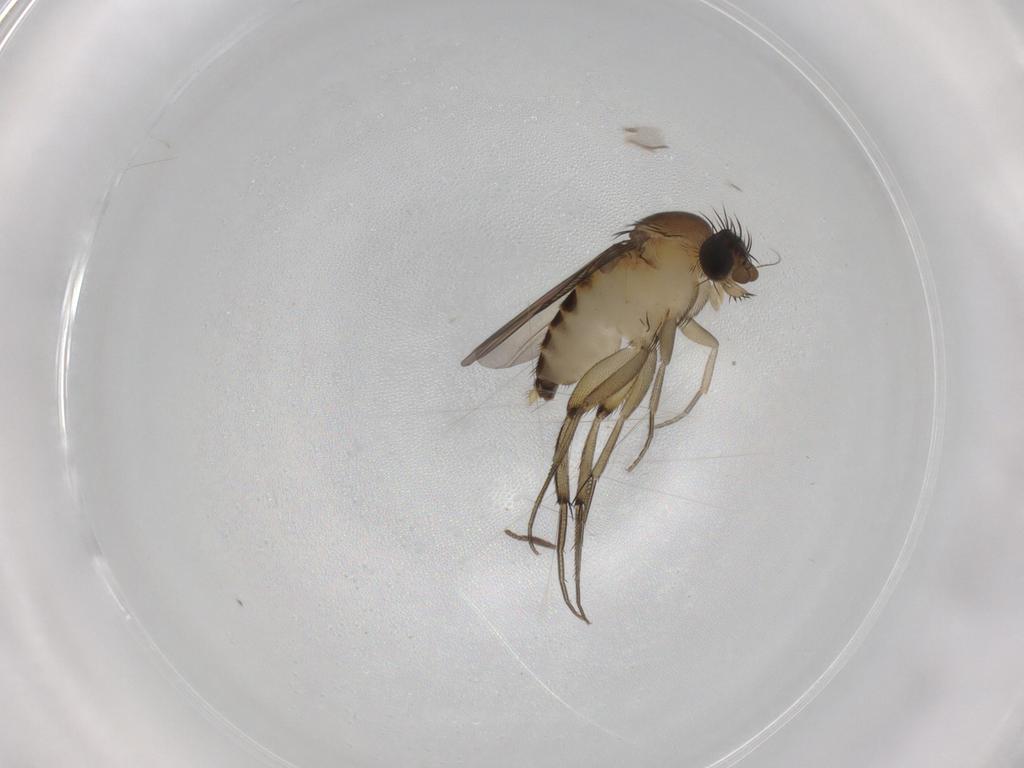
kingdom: Animalia
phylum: Arthropoda
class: Insecta
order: Diptera
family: Phoridae
